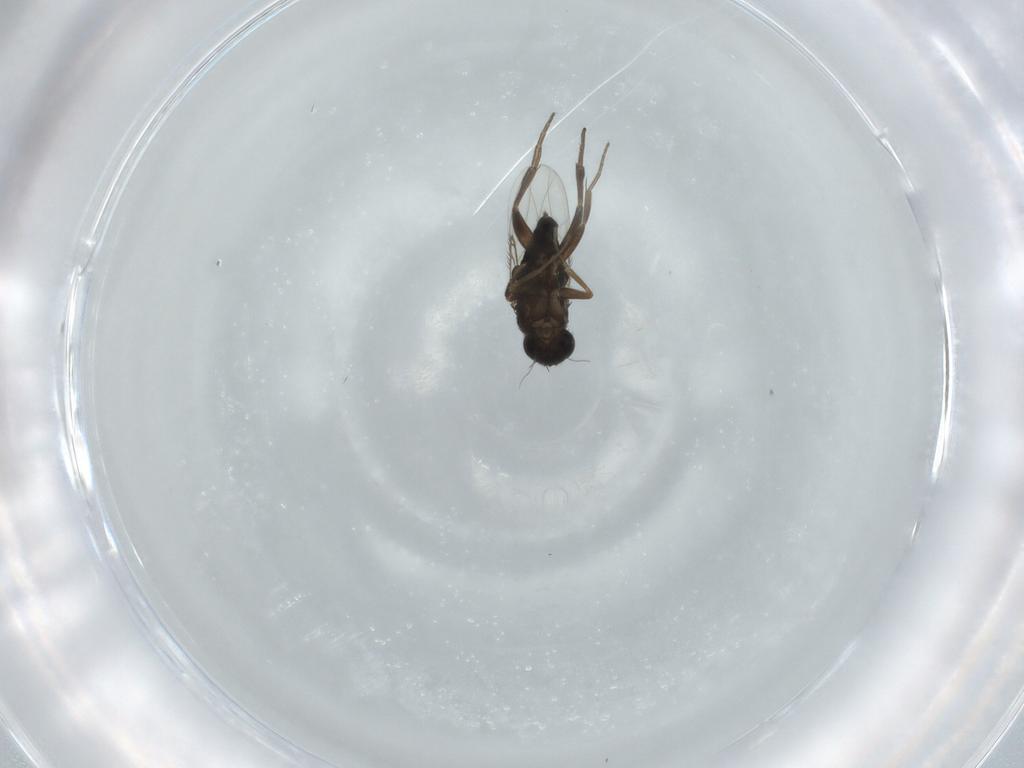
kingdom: Animalia
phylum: Arthropoda
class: Insecta
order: Diptera
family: Phoridae
